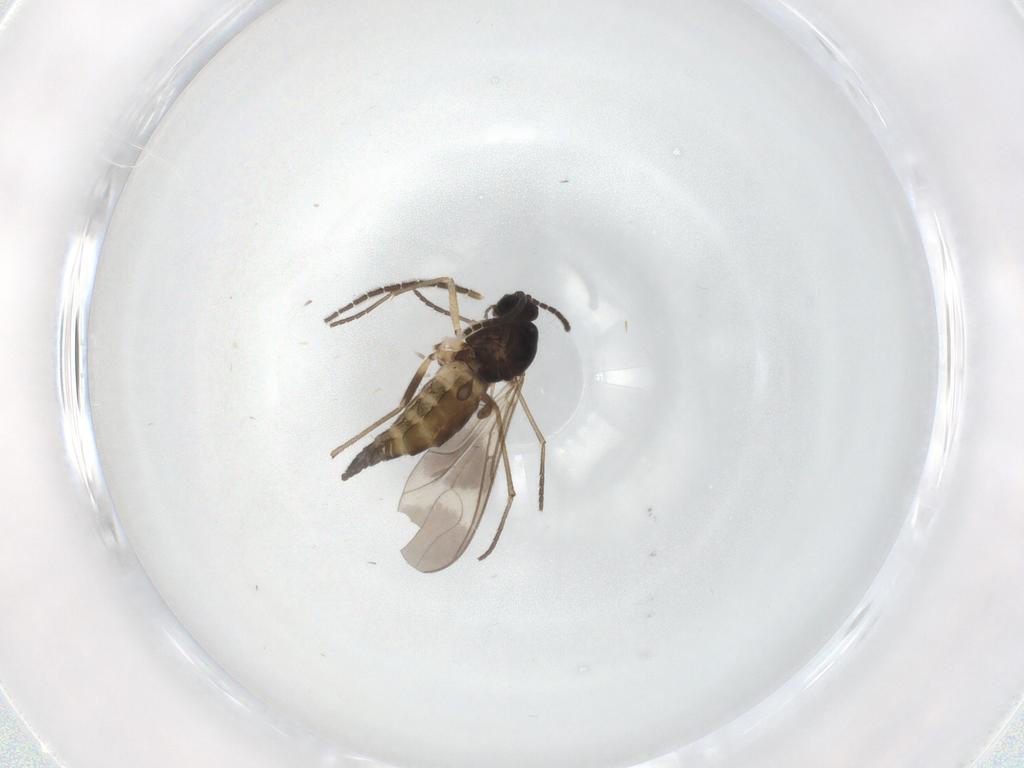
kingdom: Animalia
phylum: Arthropoda
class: Insecta
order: Diptera
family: Sciaridae
